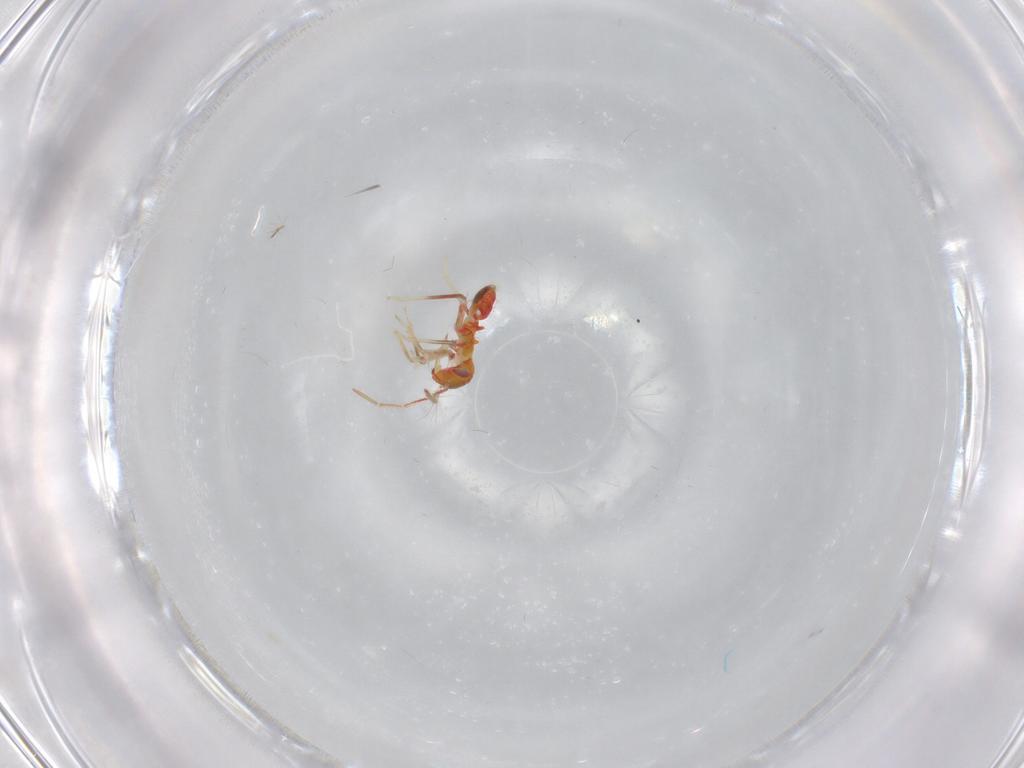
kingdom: Animalia
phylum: Arthropoda
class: Insecta
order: Hemiptera
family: Miridae
